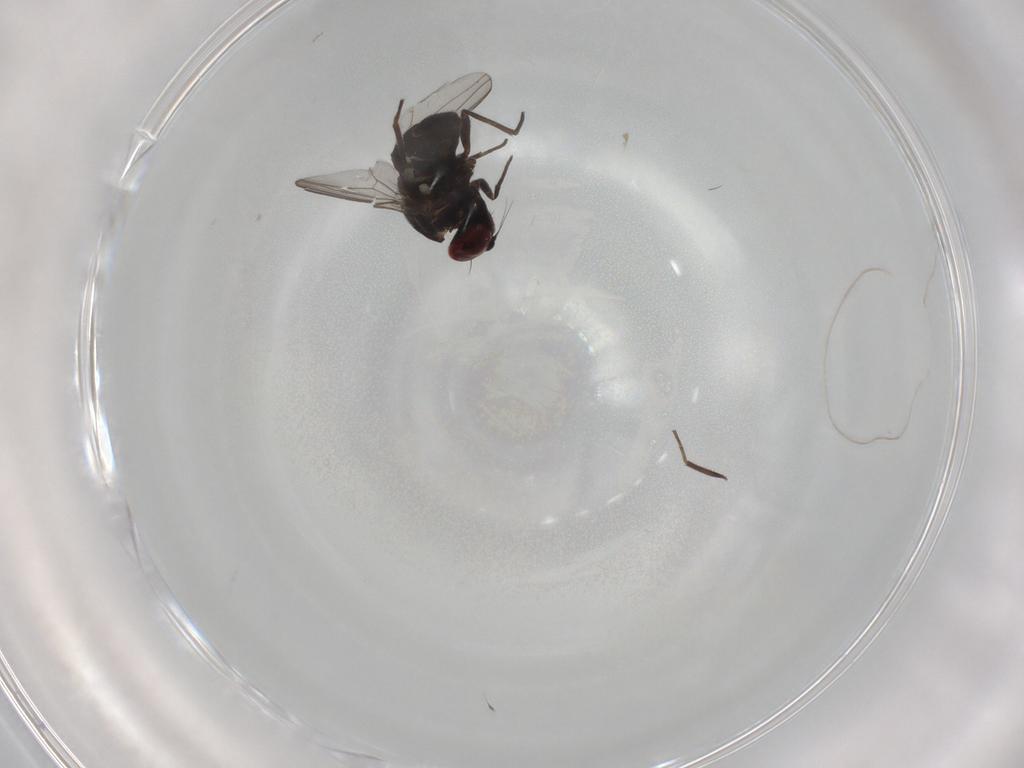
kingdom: Animalia
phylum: Arthropoda
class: Insecta
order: Diptera
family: Dolichopodidae
